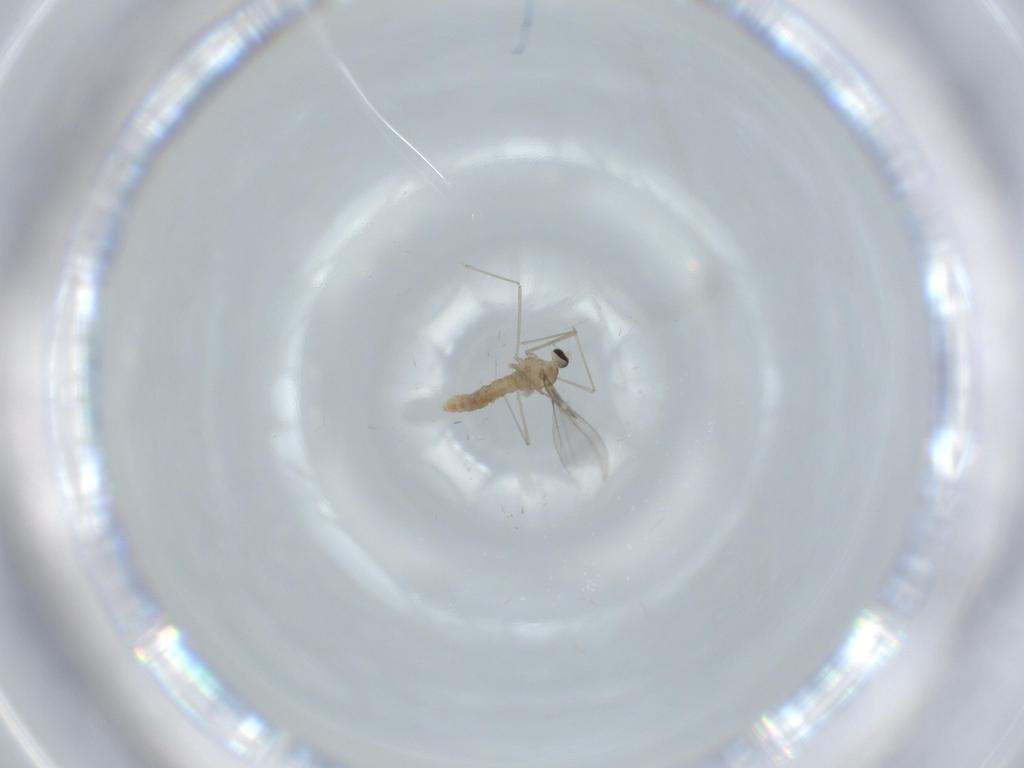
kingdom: Animalia
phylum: Arthropoda
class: Insecta
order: Diptera
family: Cecidomyiidae
